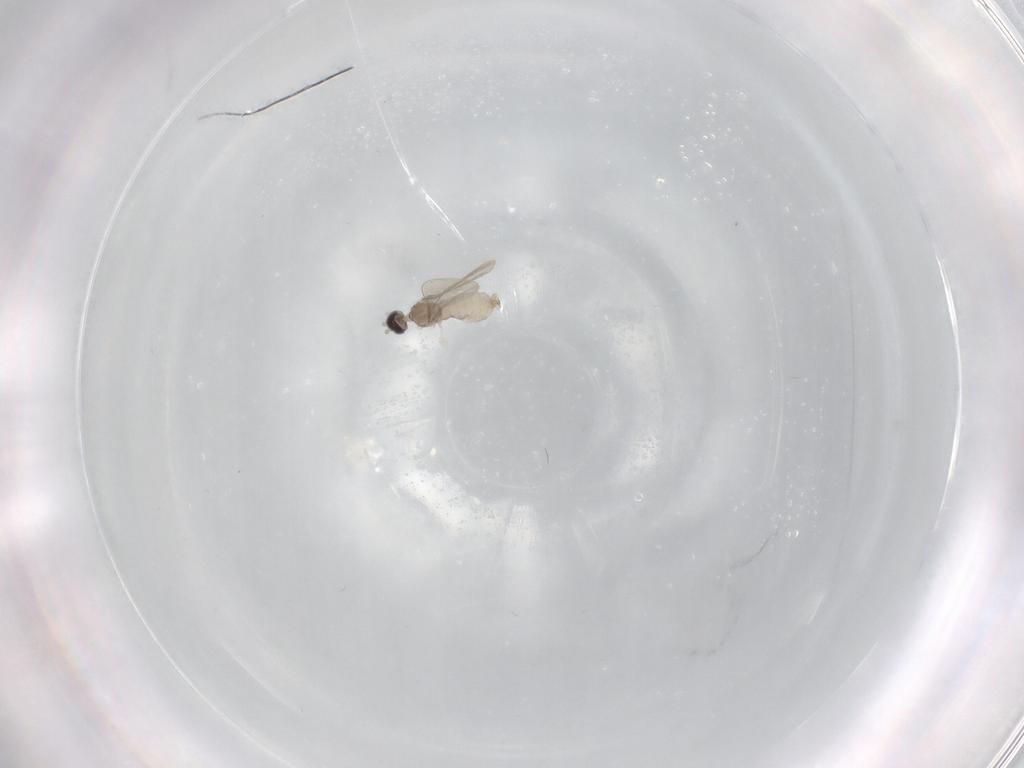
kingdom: Animalia
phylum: Arthropoda
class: Insecta
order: Diptera
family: Cecidomyiidae
